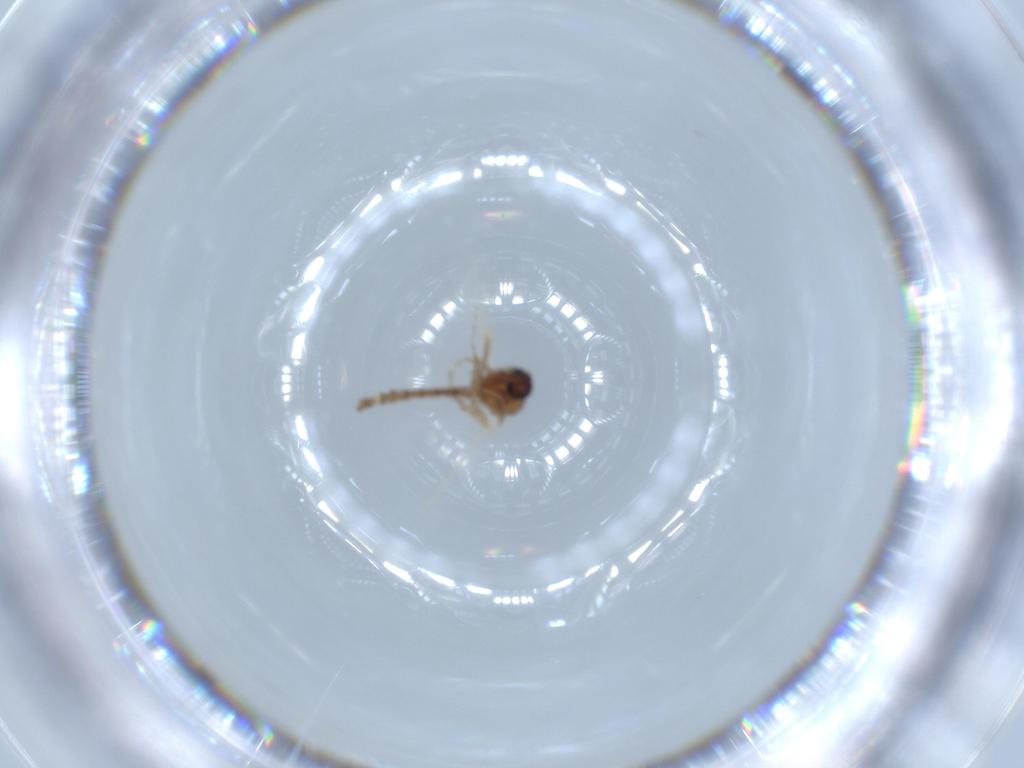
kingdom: Animalia
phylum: Arthropoda
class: Insecta
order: Diptera
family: Ceratopogonidae
